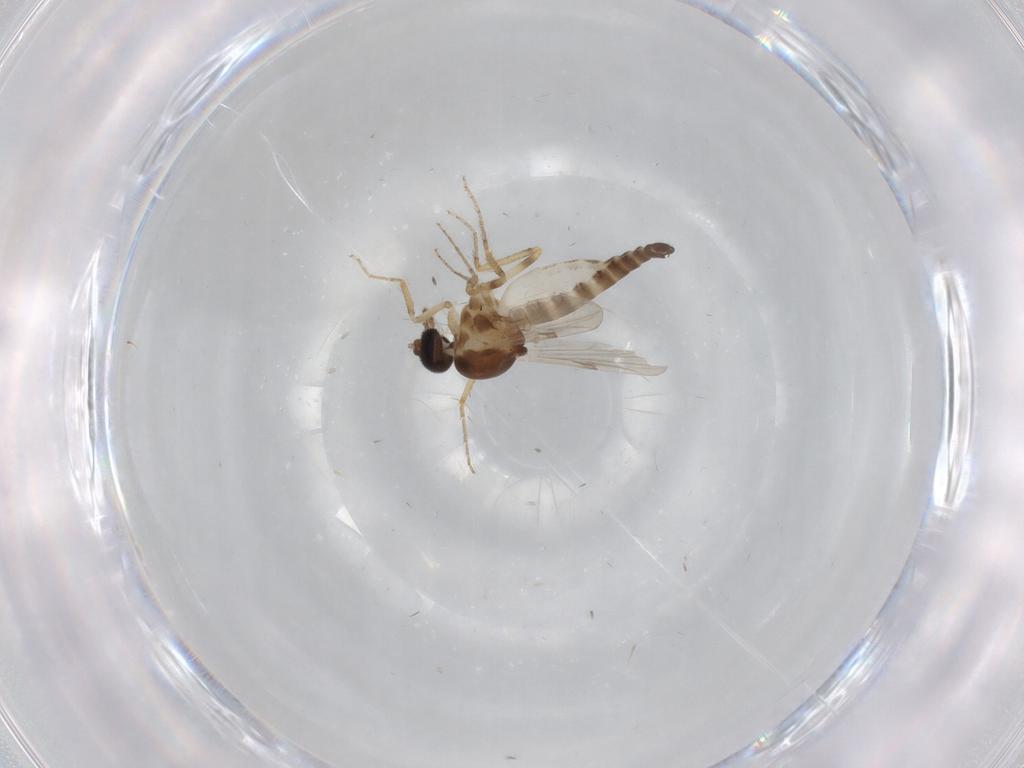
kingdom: Animalia
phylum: Arthropoda
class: Insecta
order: Diptera
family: Ceratopogonidae
